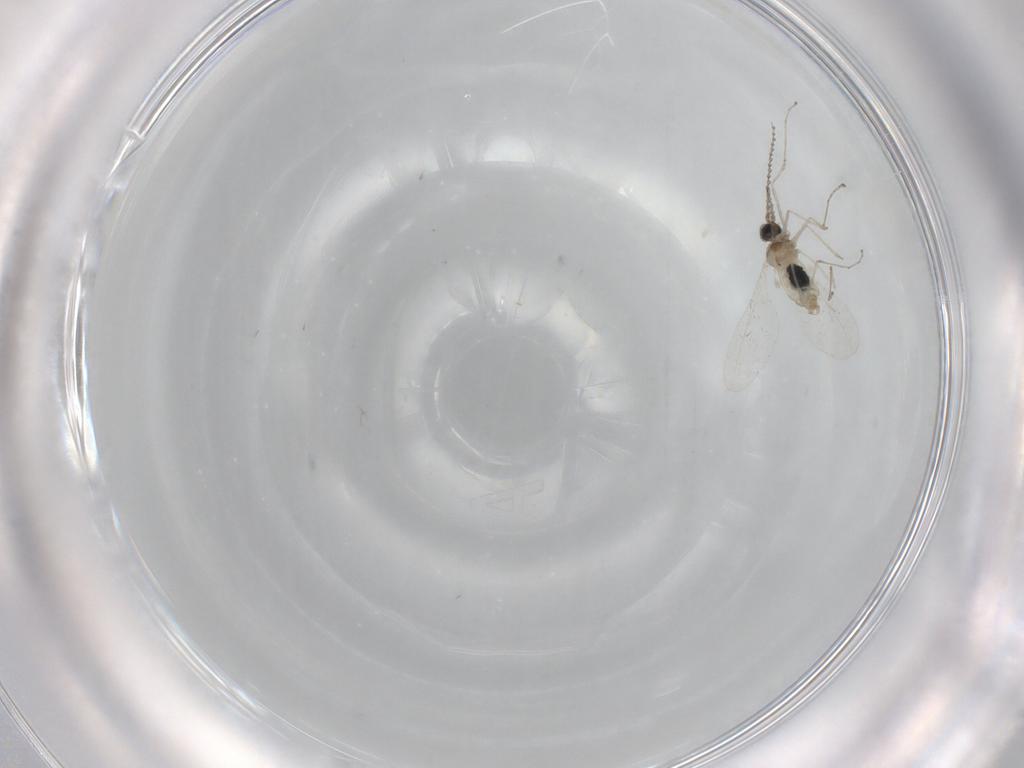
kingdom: Animalia
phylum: Arthropoda
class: Insecta
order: Diptera
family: Cecidomyiidae
